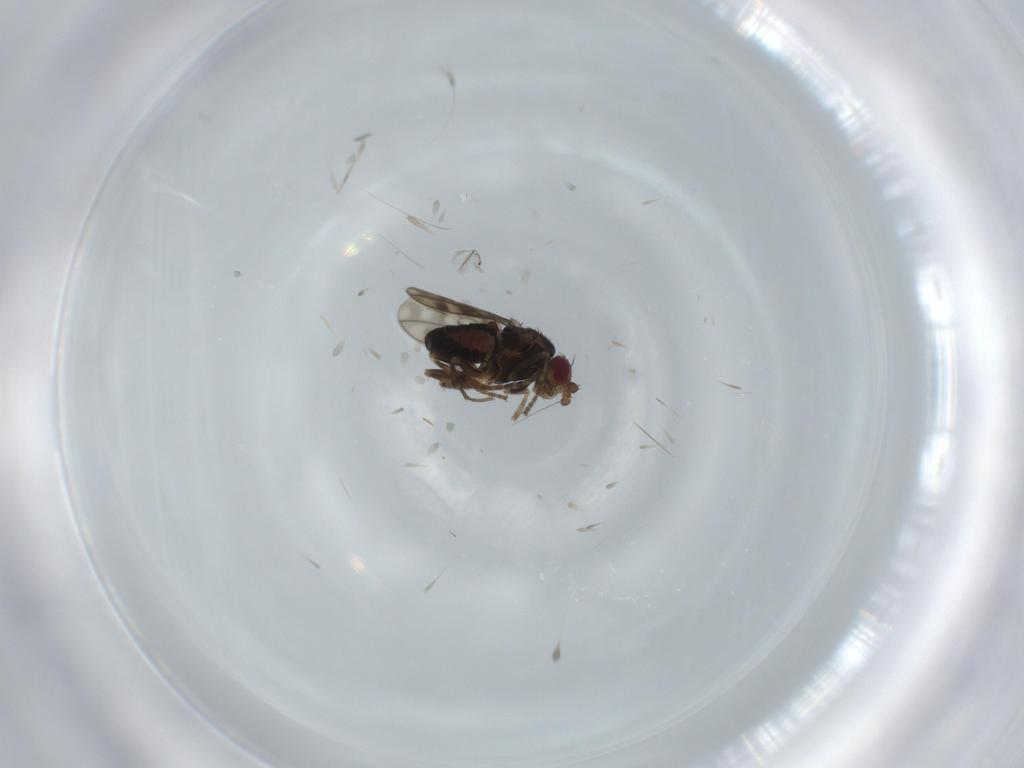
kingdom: Animalia
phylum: Arthropoda
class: Insecta
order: Diptera
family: Sphaeroceridae
